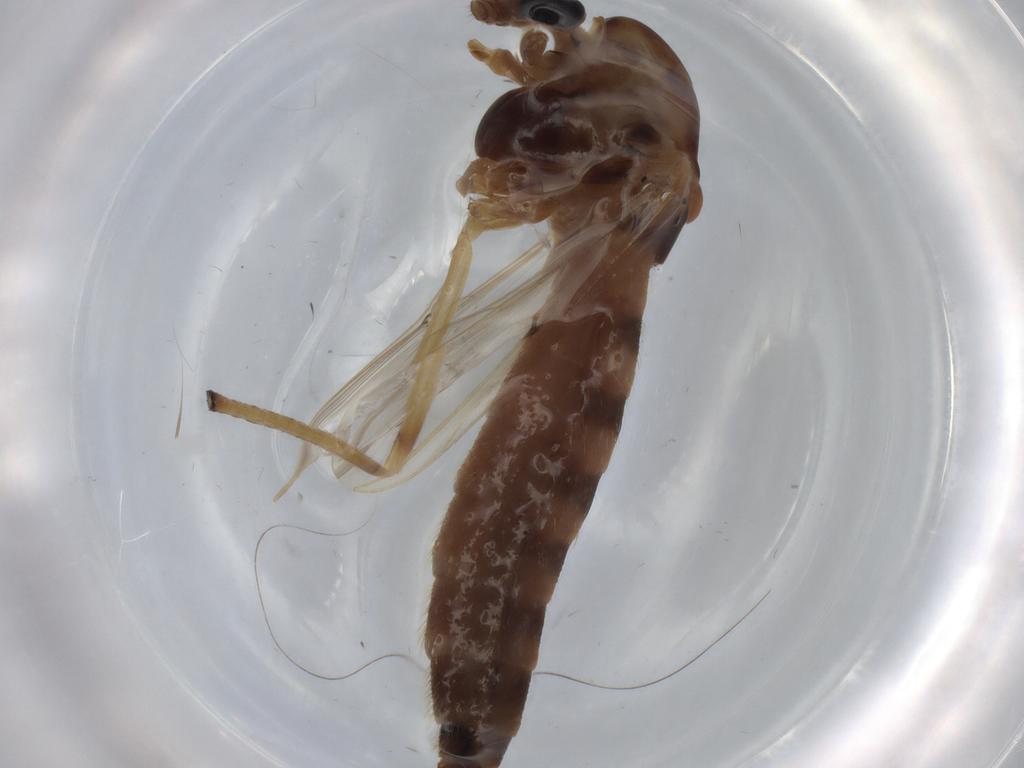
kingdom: Animalia
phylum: Arthropoda
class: Insecta
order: Diptera
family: Chironomidae
